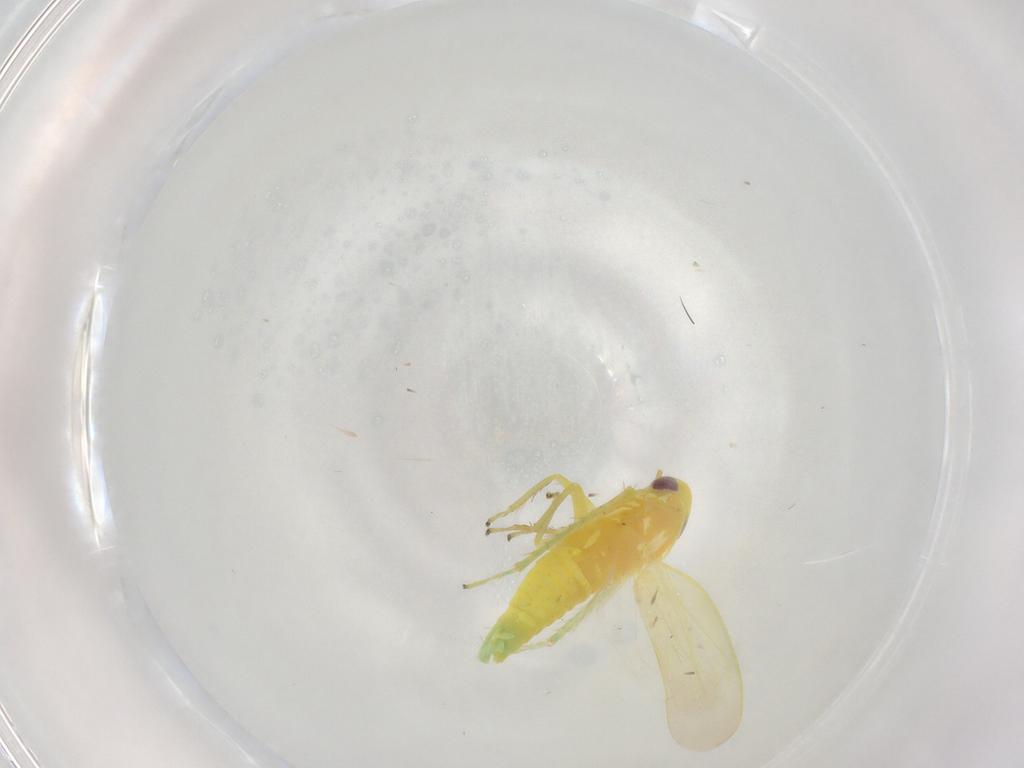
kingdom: Animalia
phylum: Arthropoda
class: Insecta
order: Hemiptera
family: Cicadellidae
